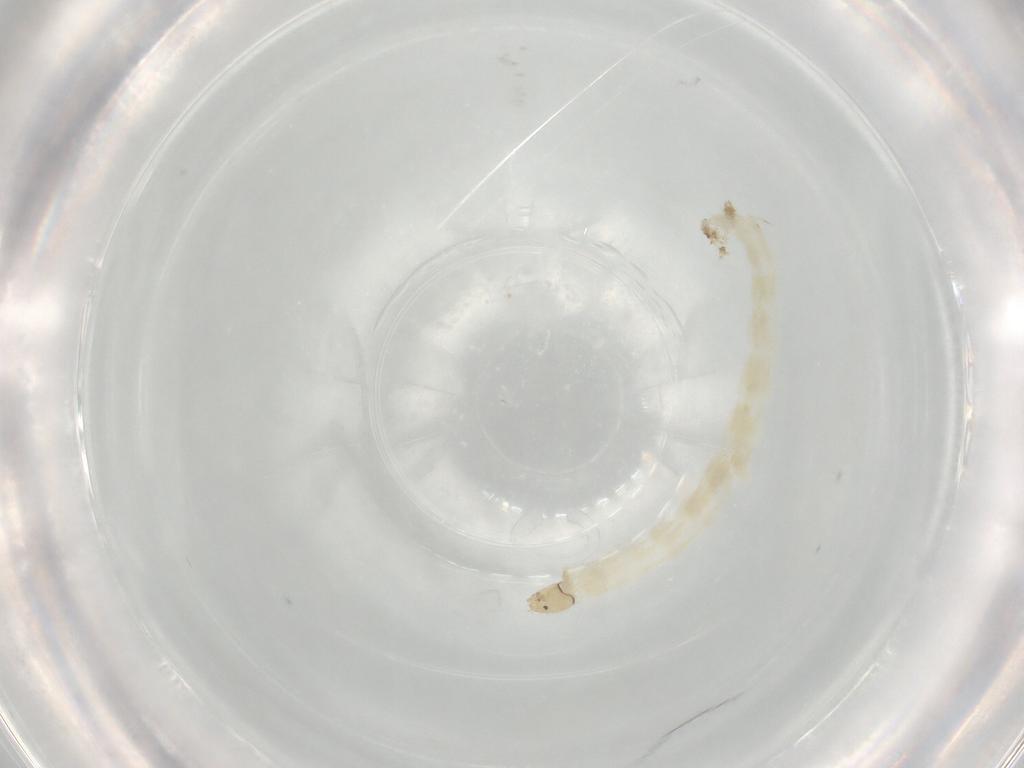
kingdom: Animalia
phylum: Arthropoda
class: Insecta
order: Diptera
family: Chironomidae
